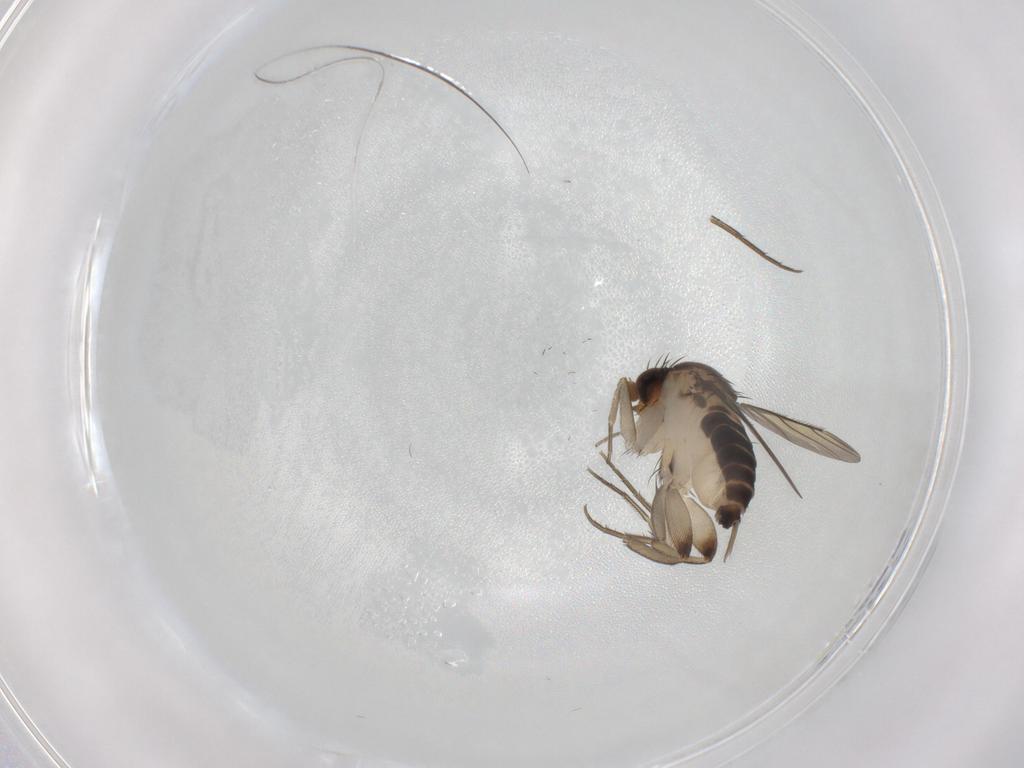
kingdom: Animalia
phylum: Arthropoda
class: Insecta
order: Diptera
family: Phoridae
